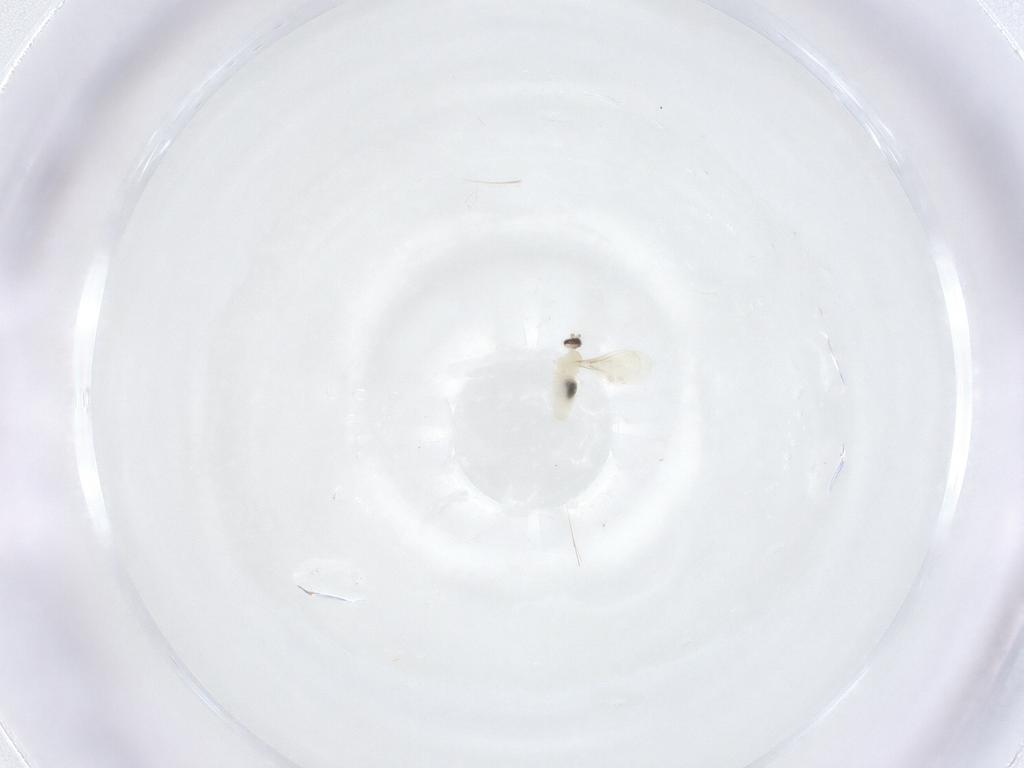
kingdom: Animalia
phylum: Arthropoda
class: Insecta
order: Diptera
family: Cecidomyiidae
